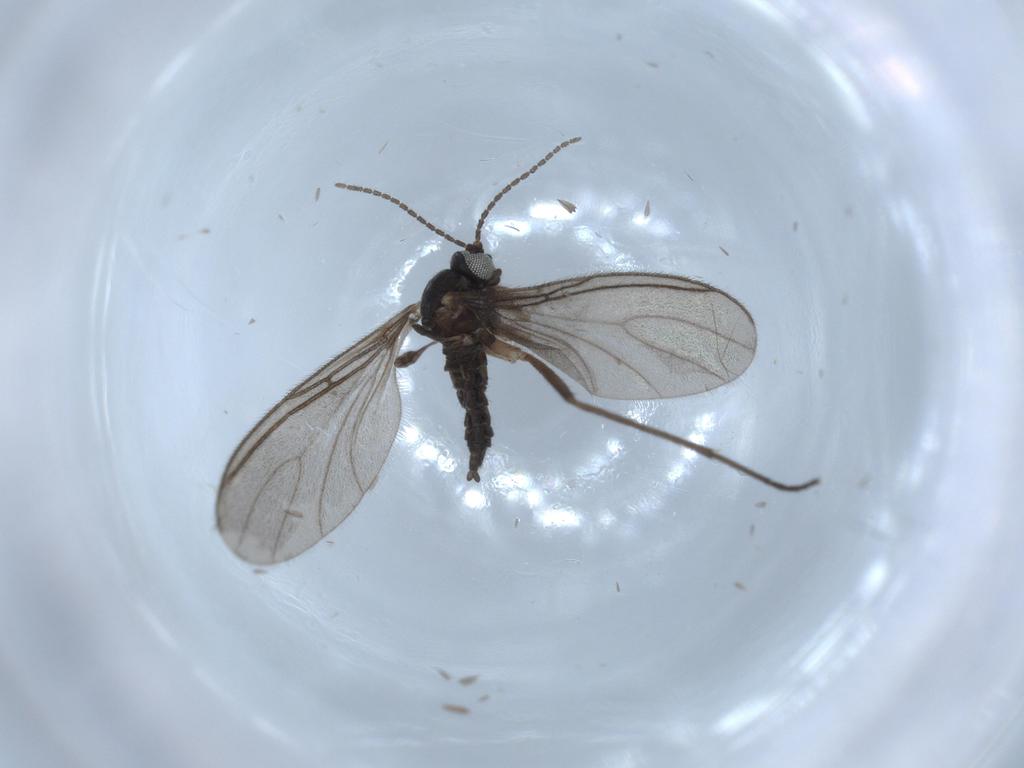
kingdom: Animalia
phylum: Arthropoda
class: Insecta
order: Diptera
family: Sciaridae
